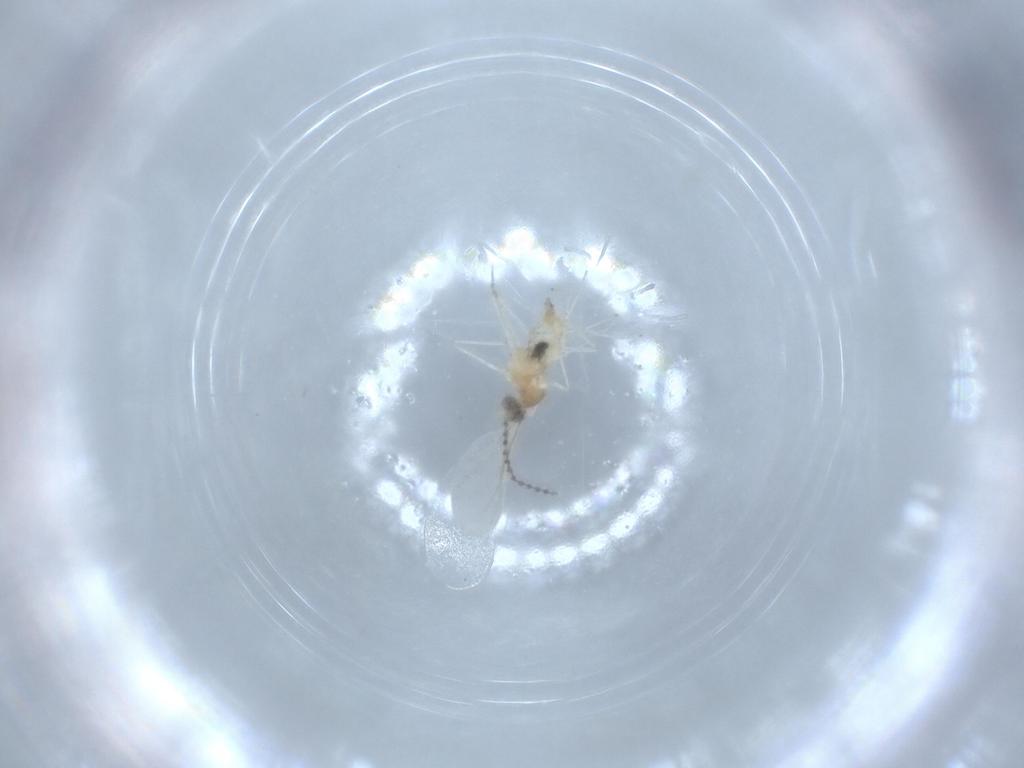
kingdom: Animalia
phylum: Arthropoda
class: Insecta
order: Diptera
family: Cecidomyiidae
